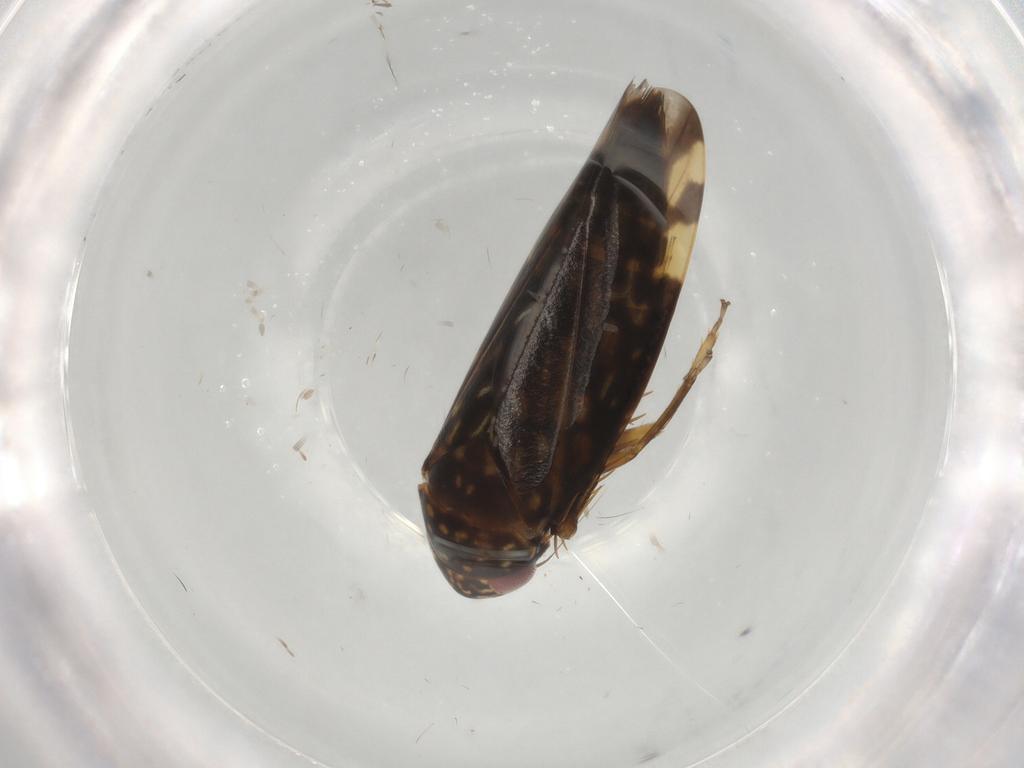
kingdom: Animalia
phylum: Arthropoda
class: Insecta
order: Hemiptera
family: Cicadellidae
